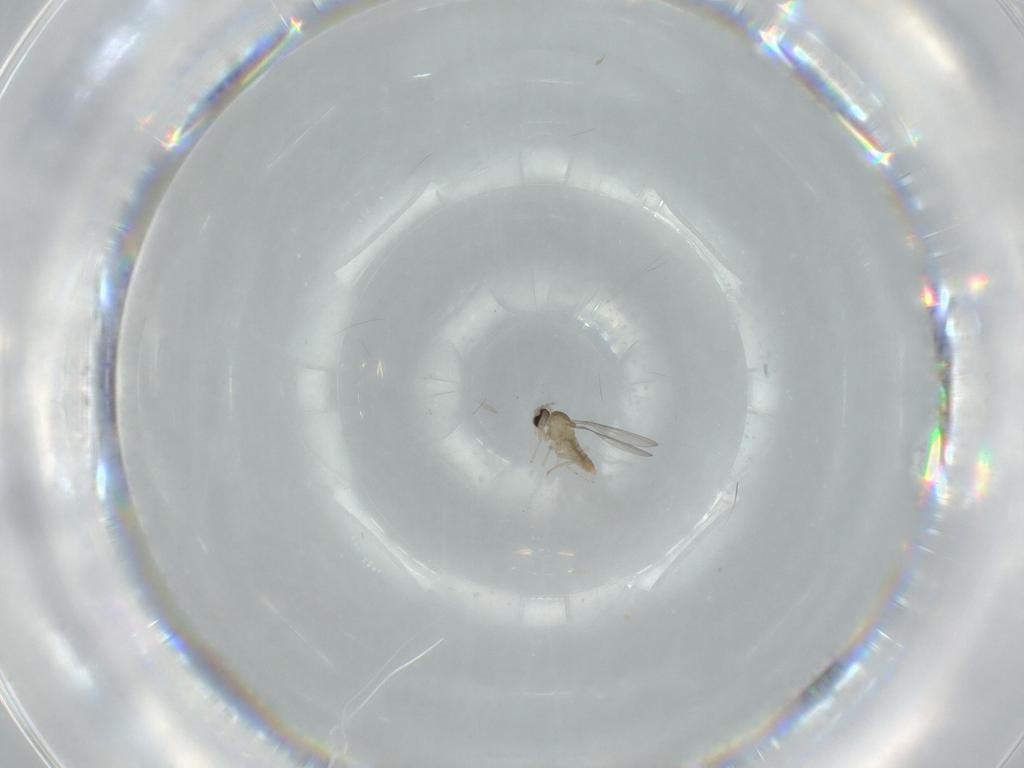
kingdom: Animalia
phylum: Arthropoda
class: Insecta
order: Diptera
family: Cecidomyiidae
